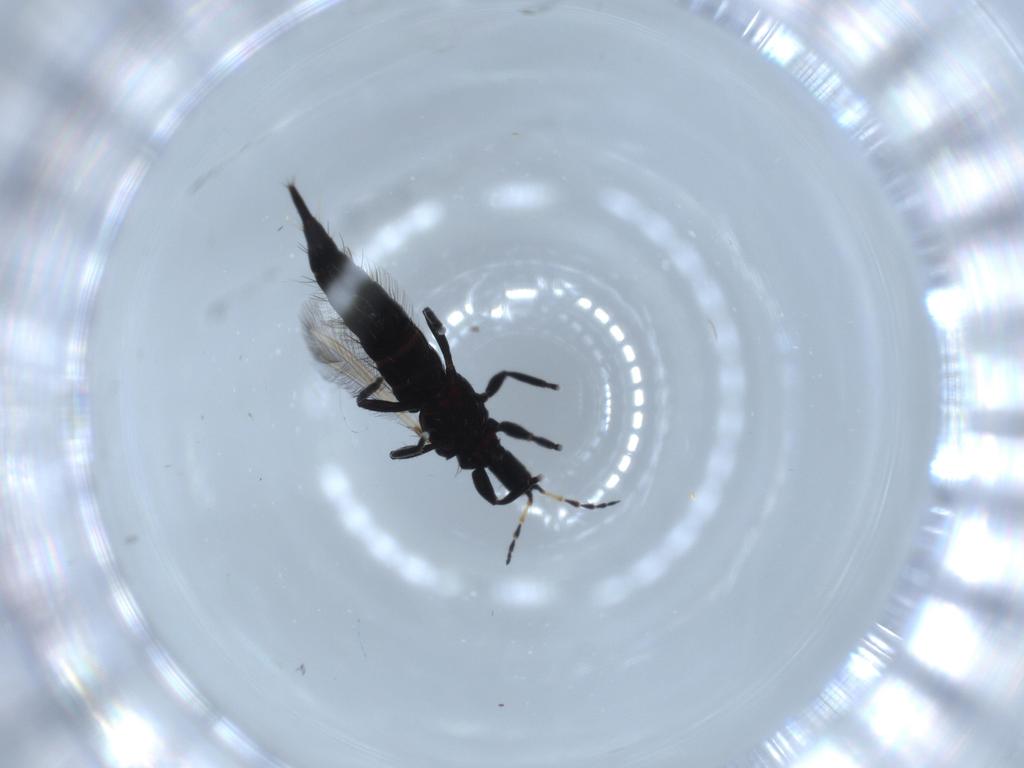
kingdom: Animalia
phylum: Arthropoda
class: Insecta
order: Thysanoptera
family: Phlaeothripidae
